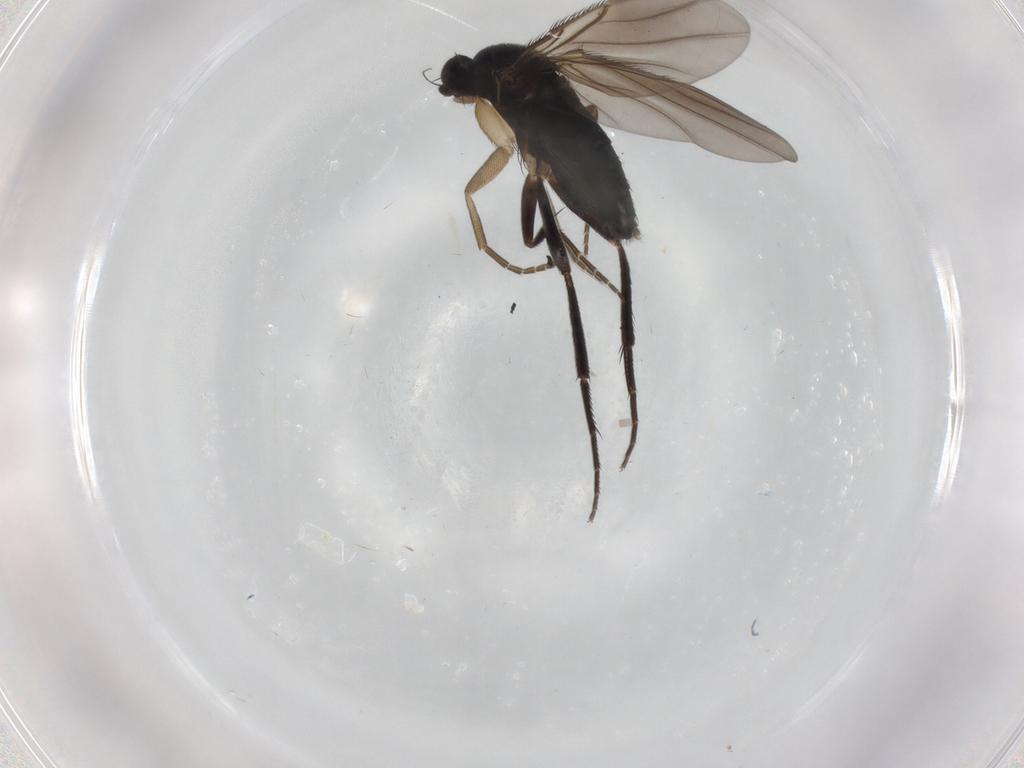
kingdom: Animalia
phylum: Arthropoda
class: Insecta
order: Diptera
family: Phoridae
